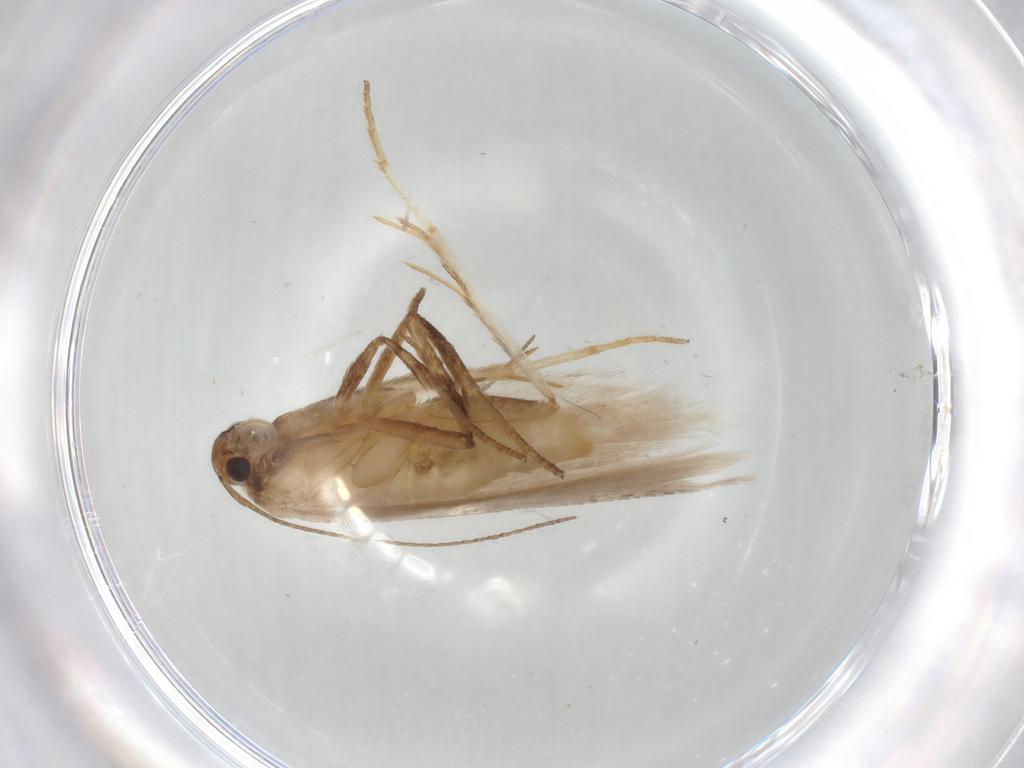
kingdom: Animalia
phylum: Arthropoda
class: Insecta
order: Lepidoptera
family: Gelechiidae
